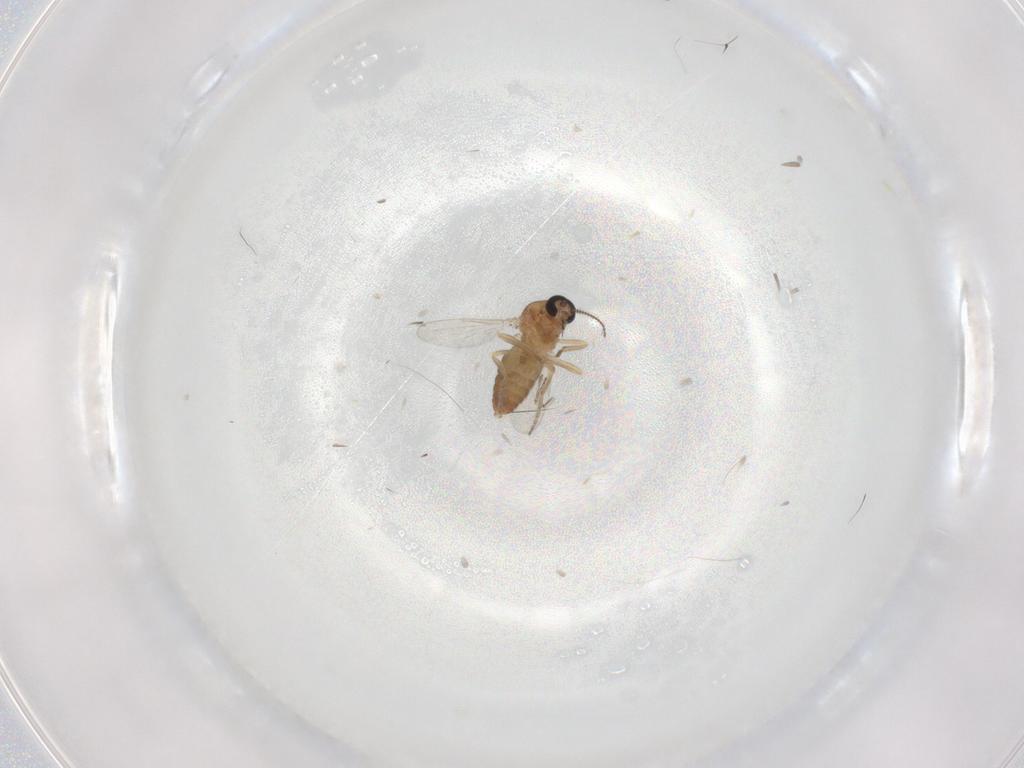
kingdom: Animalia
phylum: Arthropoda
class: Insecta
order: Diptera
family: Ceratopogonidae
